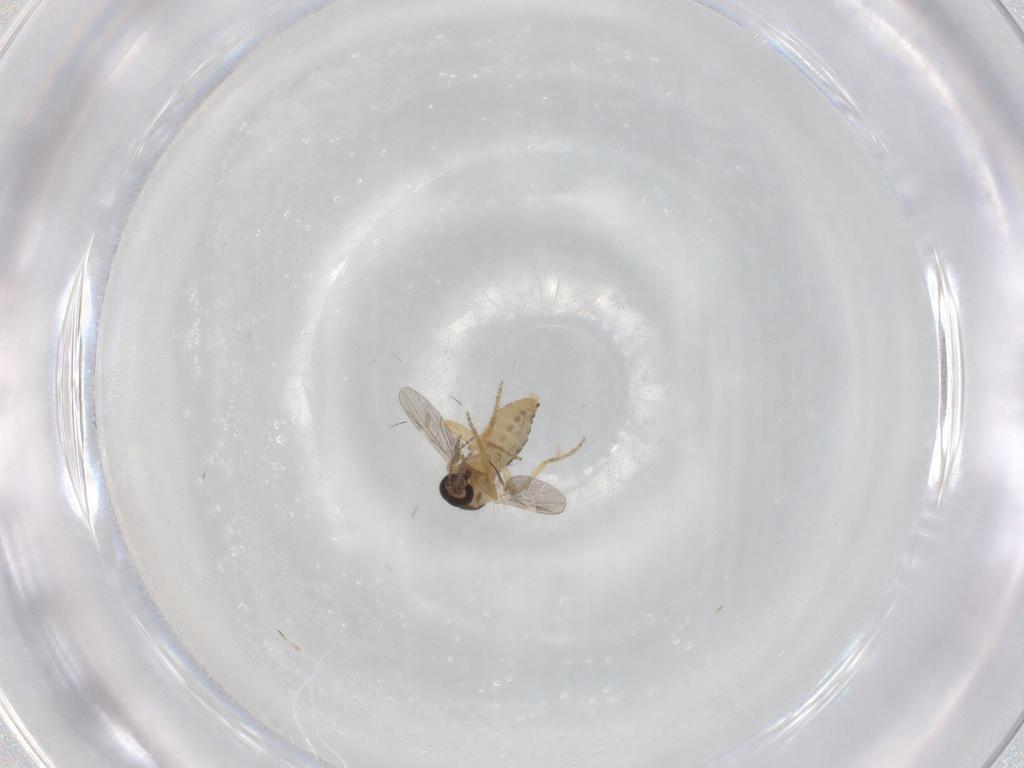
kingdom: Animalia
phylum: Arthropoda
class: Insecta
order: Diptera
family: Ceratopogonidae
